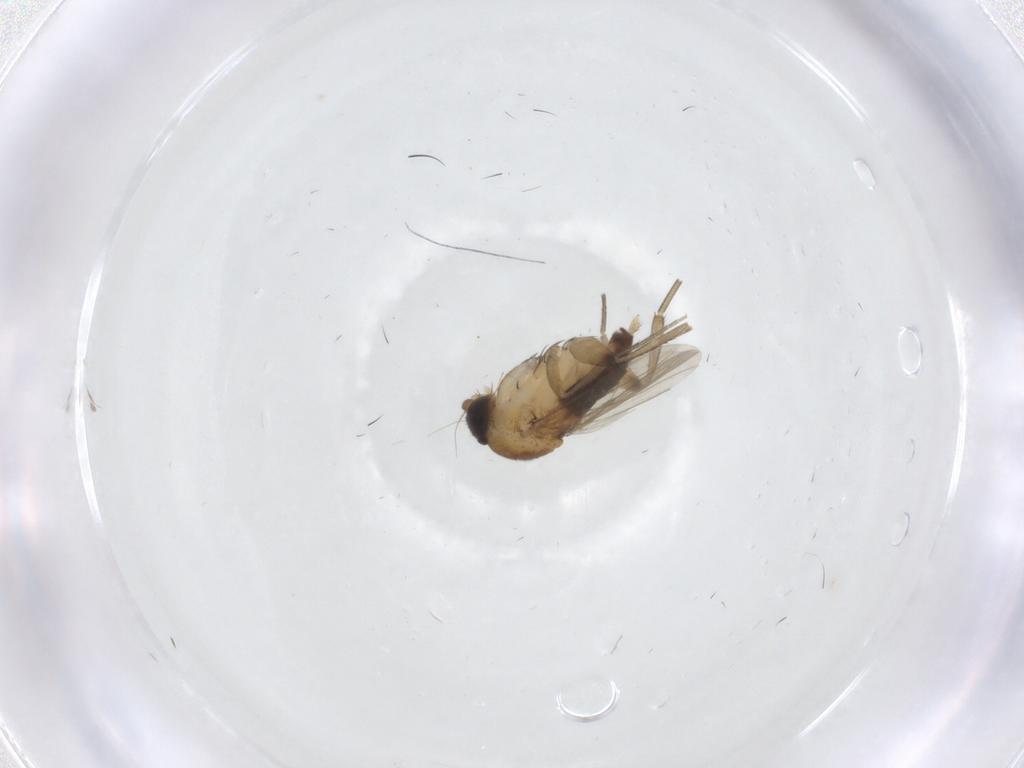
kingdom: Animalia
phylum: Arthropoda
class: Insecta
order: Diptera
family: Phoridae
